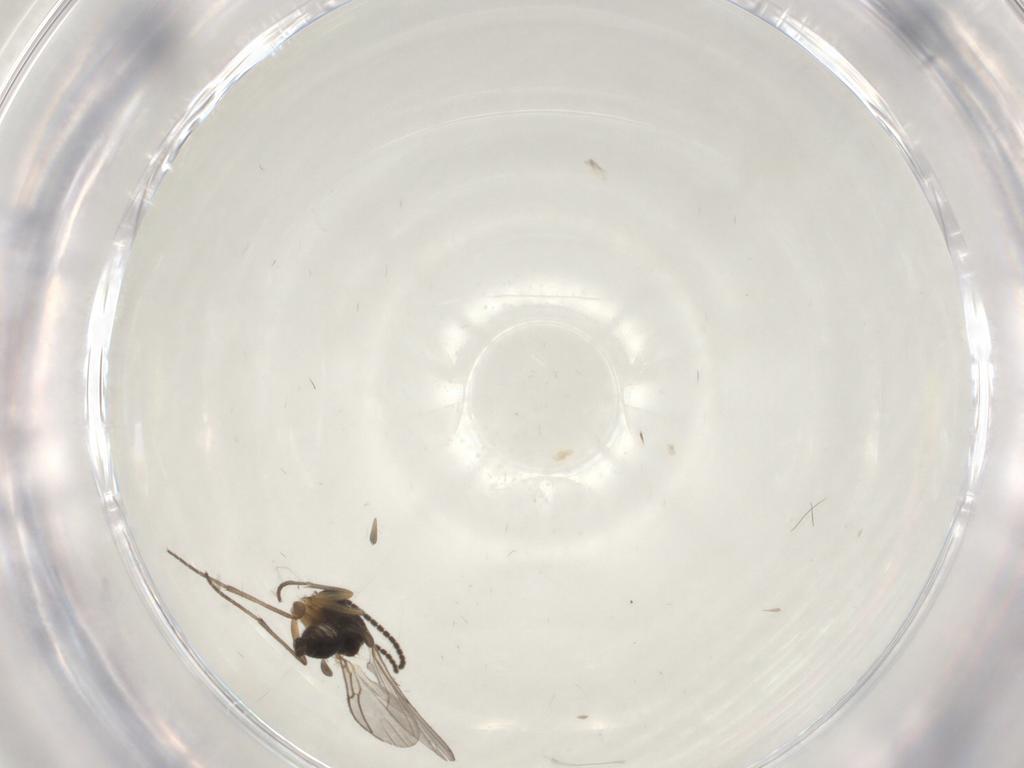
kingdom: Animalia
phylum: Arthropoda
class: Insecta
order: Diptera
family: Sciaridae
